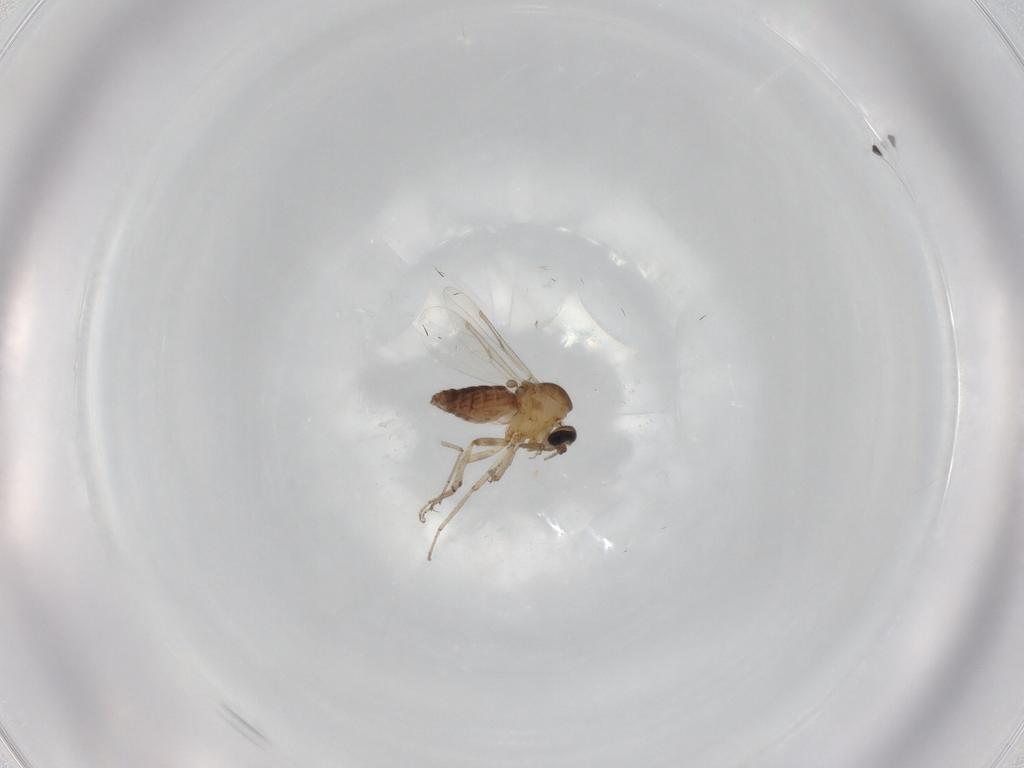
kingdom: Animalia
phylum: Arthropoda
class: Insecta
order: Diptera
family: Ceratopogonidae
